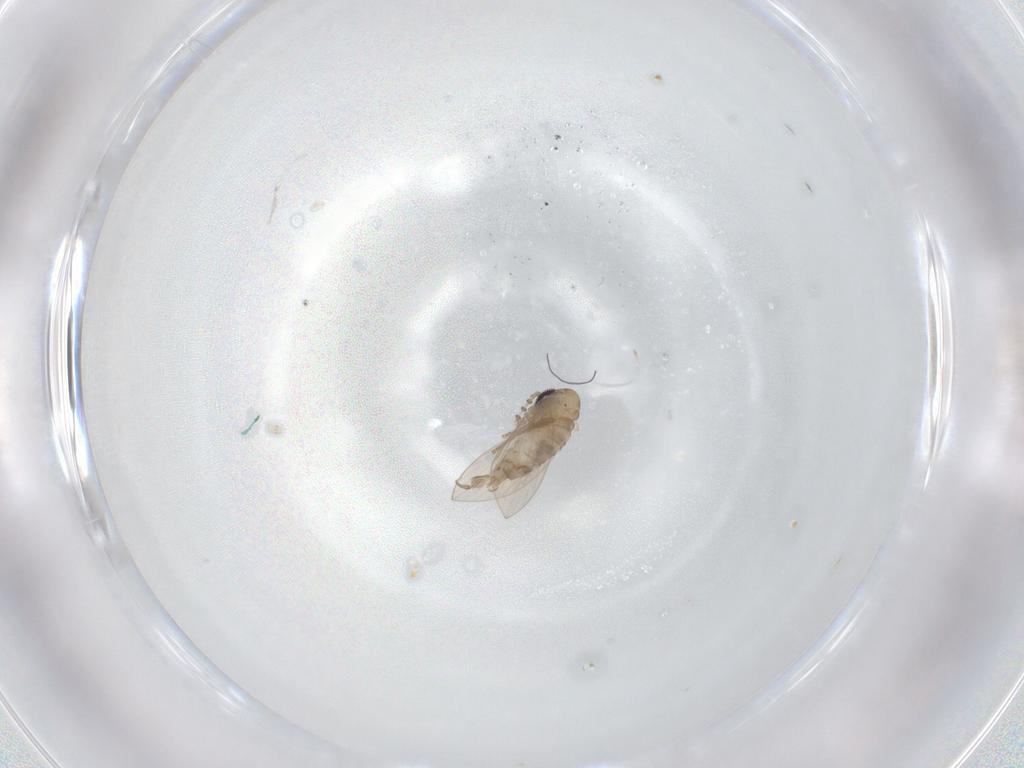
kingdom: Animalia
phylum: Arthropoda
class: Insecta
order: Diptera
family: Psychodidae
